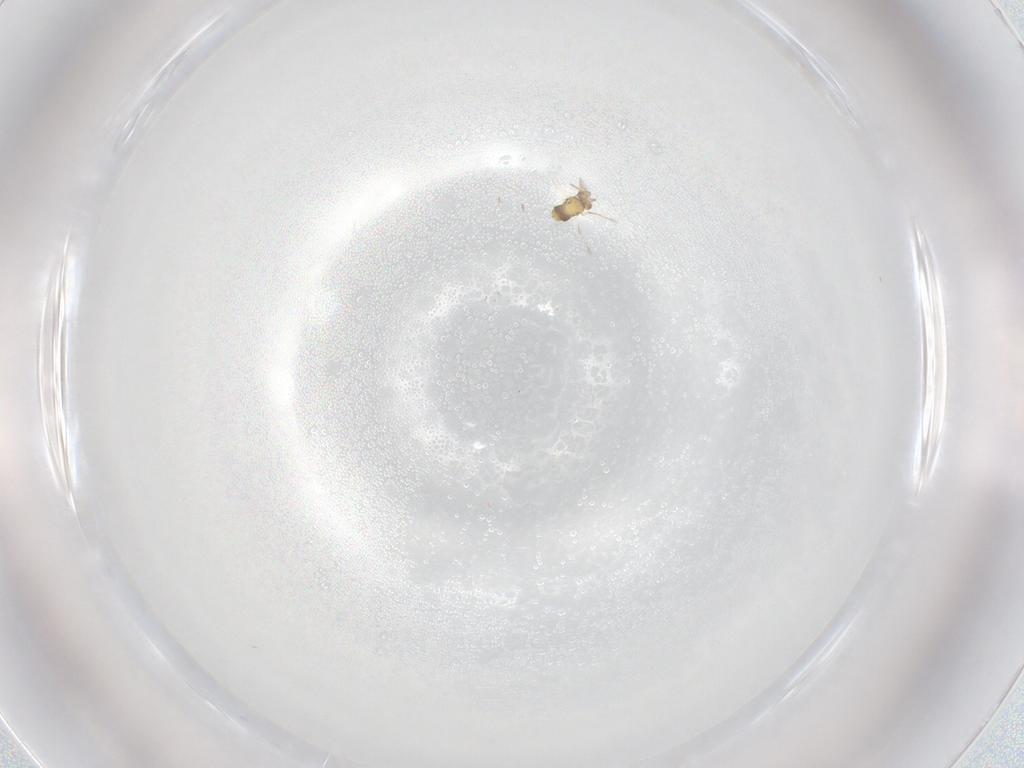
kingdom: Animalia
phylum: Arthropoda
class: Insecta
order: Hymenoptera
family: Aphelinidae
